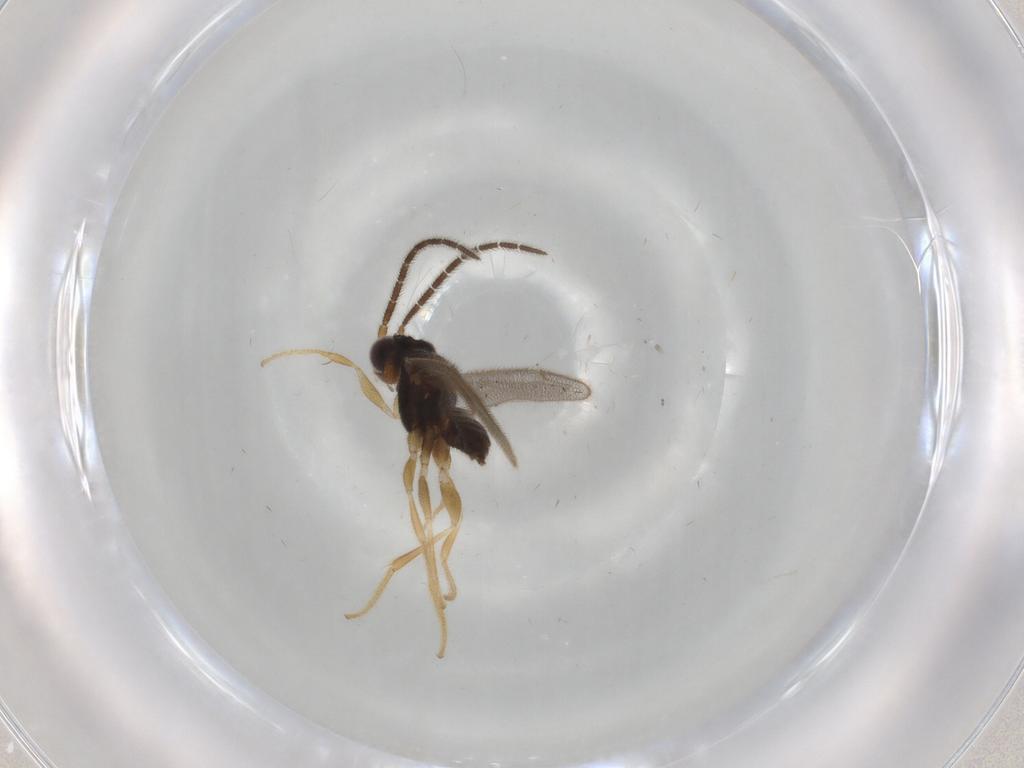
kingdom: Animalia
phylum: Arthropoda
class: Insecta
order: Hymenoptera
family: Dryinidae
